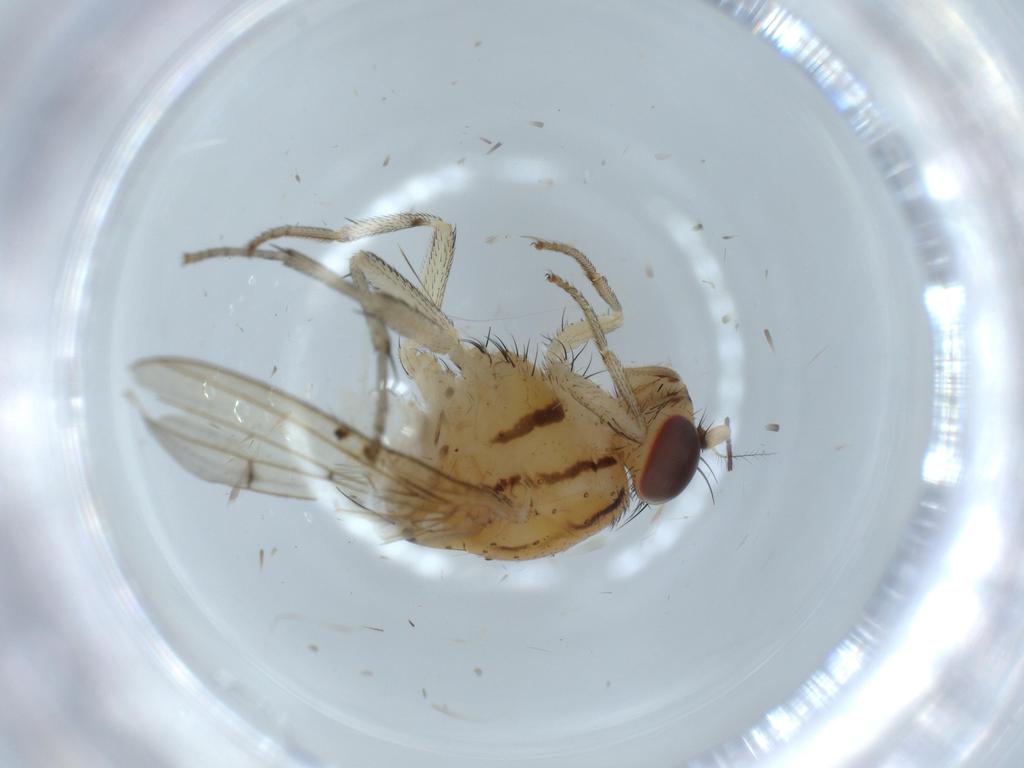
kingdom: Animalia
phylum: Arthropoda
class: Insecta
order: Diptera
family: Lauxaniidae
